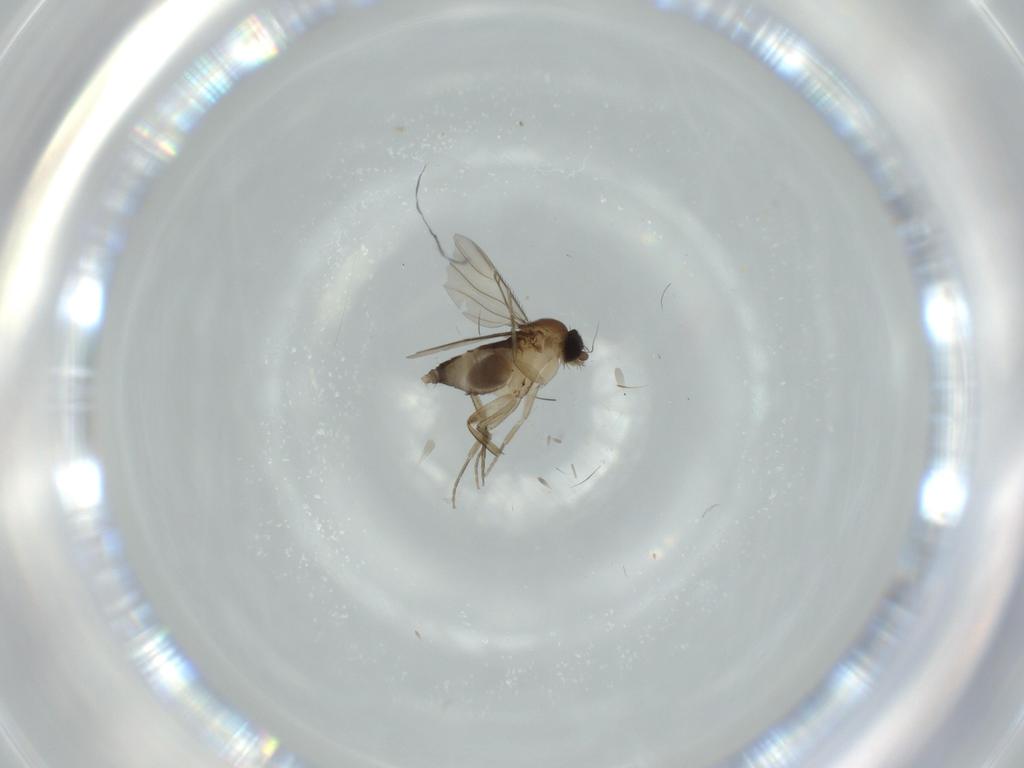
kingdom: Animalia
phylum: Arthropoda
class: Insecta
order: Diptera
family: Phoridae
